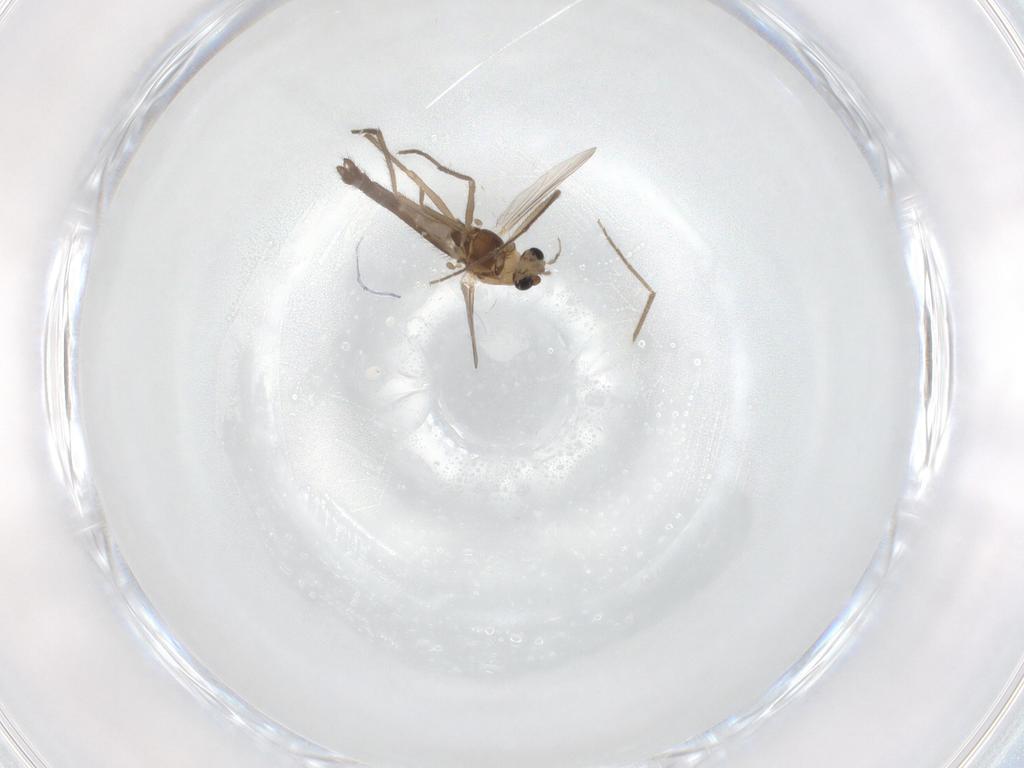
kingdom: Animalia
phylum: Arthropoda
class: Insecta
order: Diptera
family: Chironomidae
